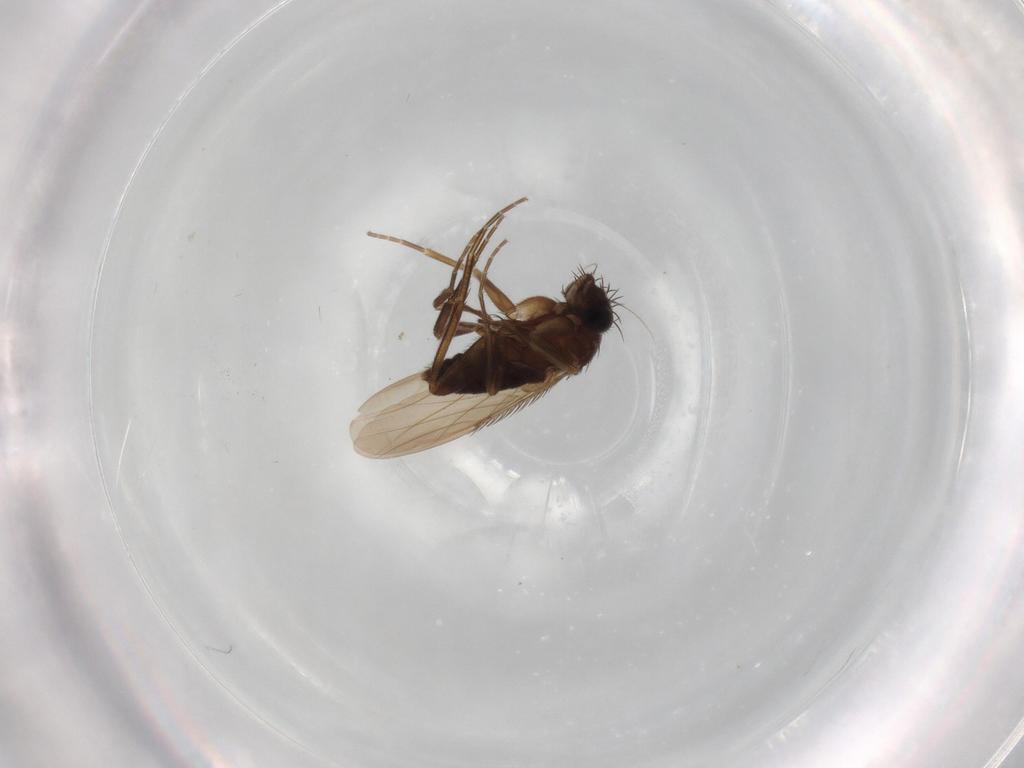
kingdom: Animalia
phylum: Arthropoda
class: Insecta
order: Diptera
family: Phoridae
